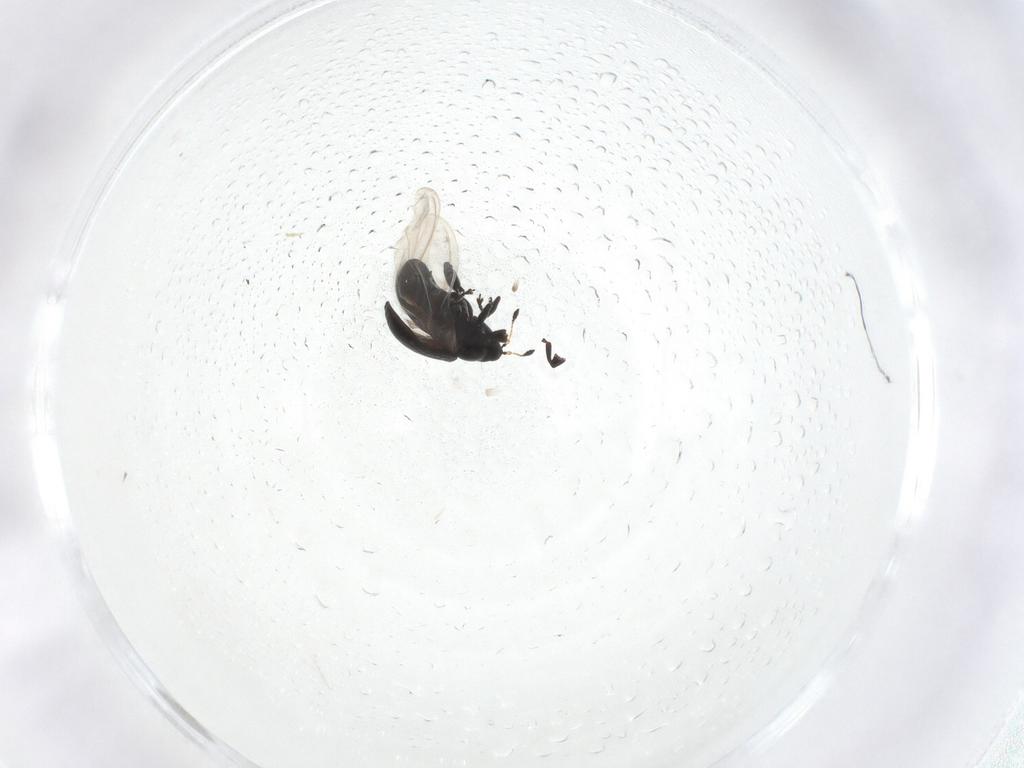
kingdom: Animalia
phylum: Arthropoda
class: Insecta
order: Coleoptera
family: Curculionidae
